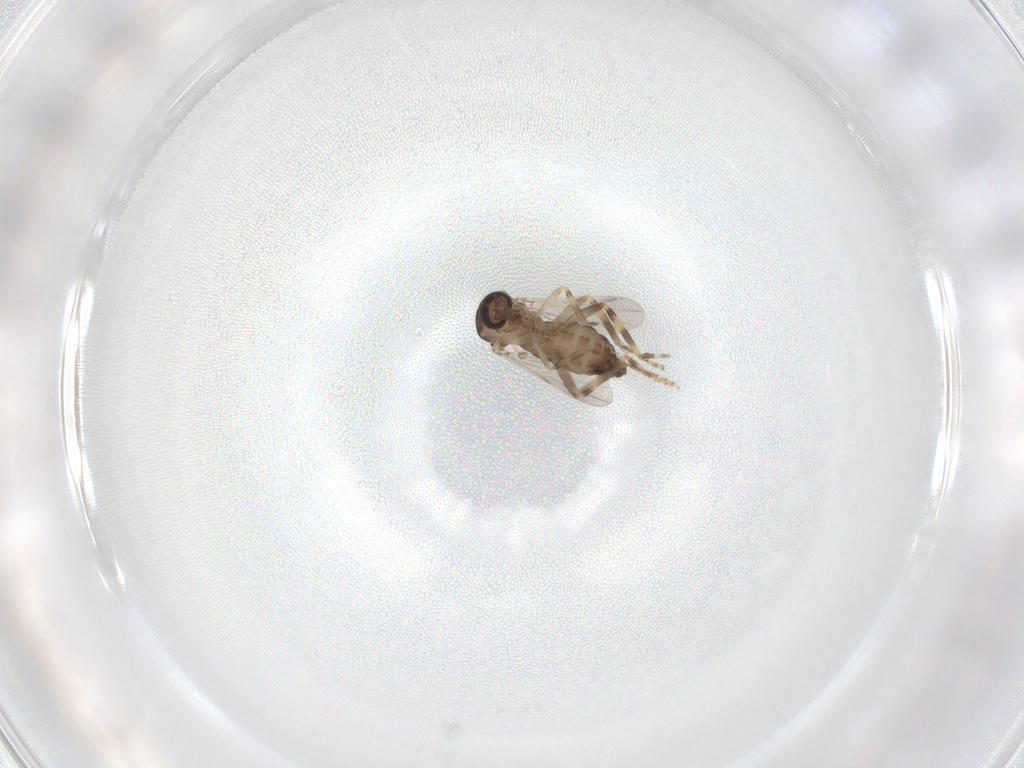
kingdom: Animalia
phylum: Arthropoda
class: Insecta
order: Diptera
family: Ceratopogonidae
